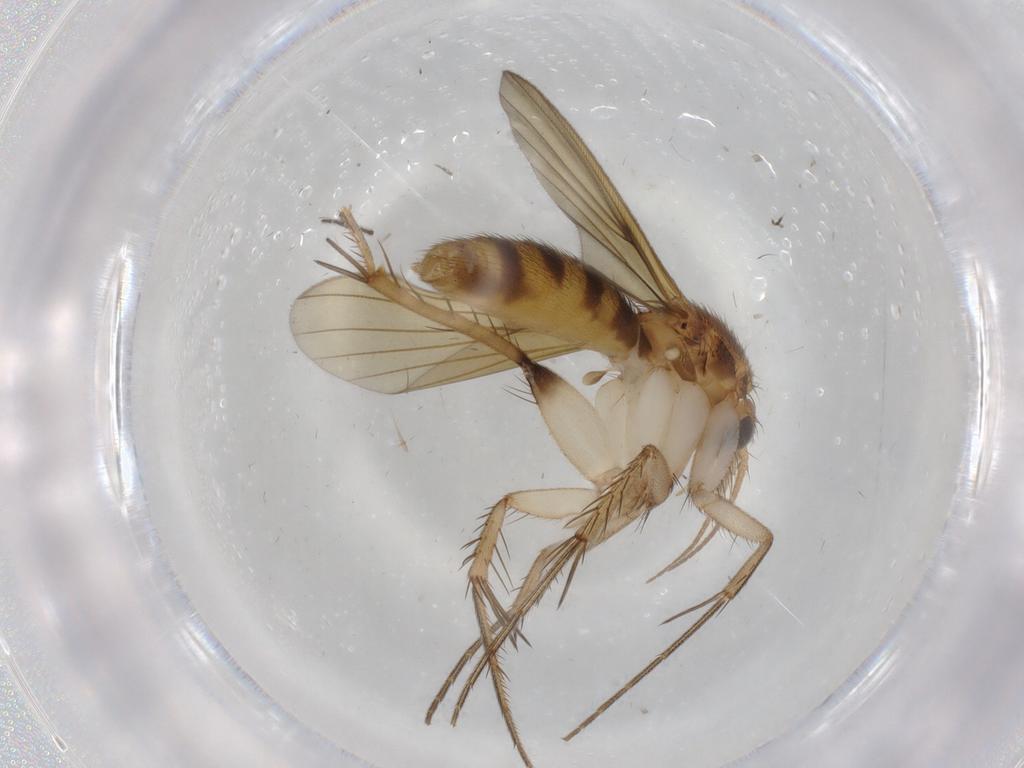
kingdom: Animalia
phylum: Arthropoda
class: Insecta
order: Diptera
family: Mycetophilidae
